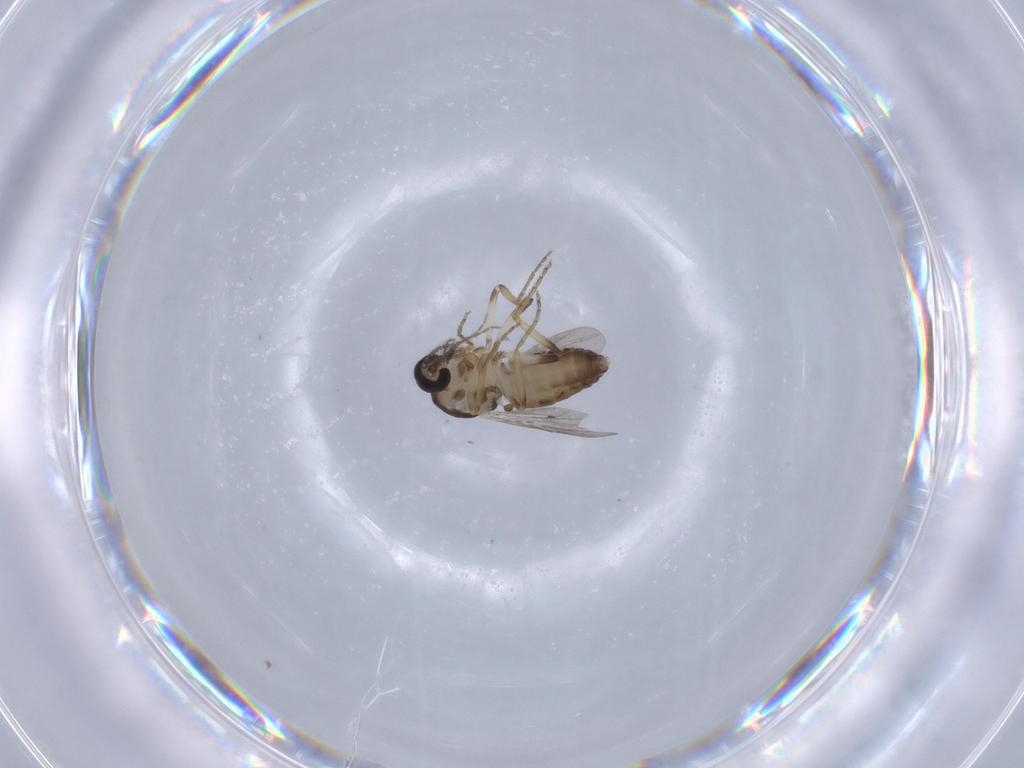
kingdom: Animalia
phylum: Arthropoda
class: Insecta
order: Diptera
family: Ceratopogonidae
